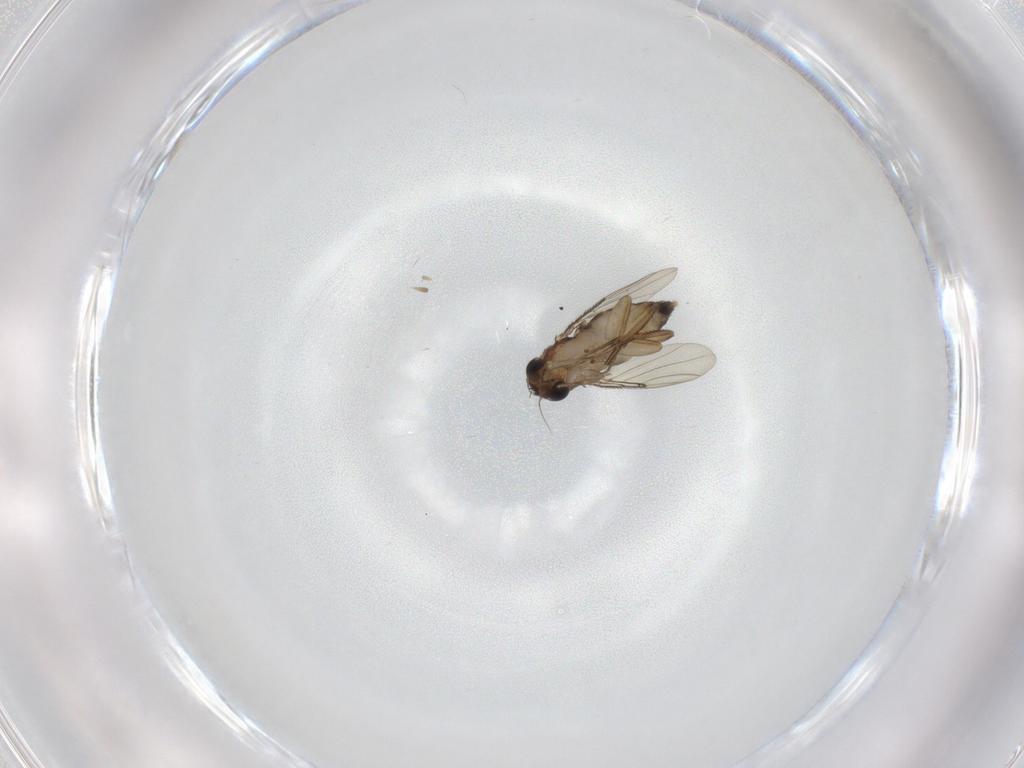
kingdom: Animalia
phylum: Arthropoda
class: Insecta
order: Diptera
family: Phoridae
